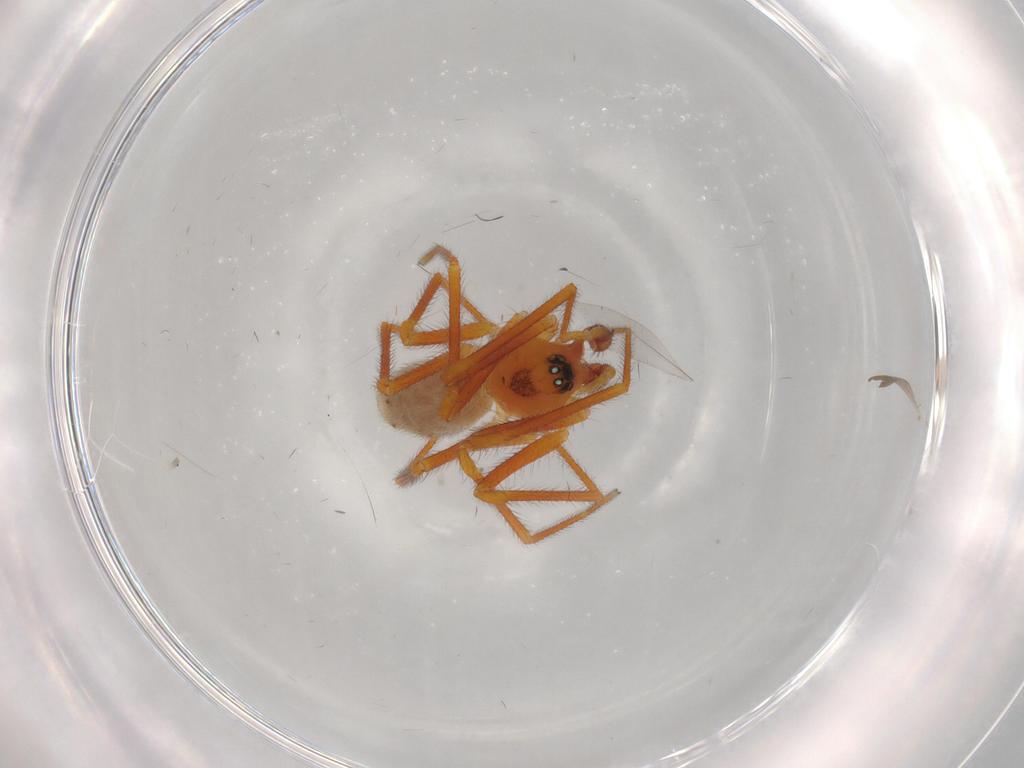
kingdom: Animalia
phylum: Arthropoda
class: Arachnida
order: Araneae
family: Linyphiidae
